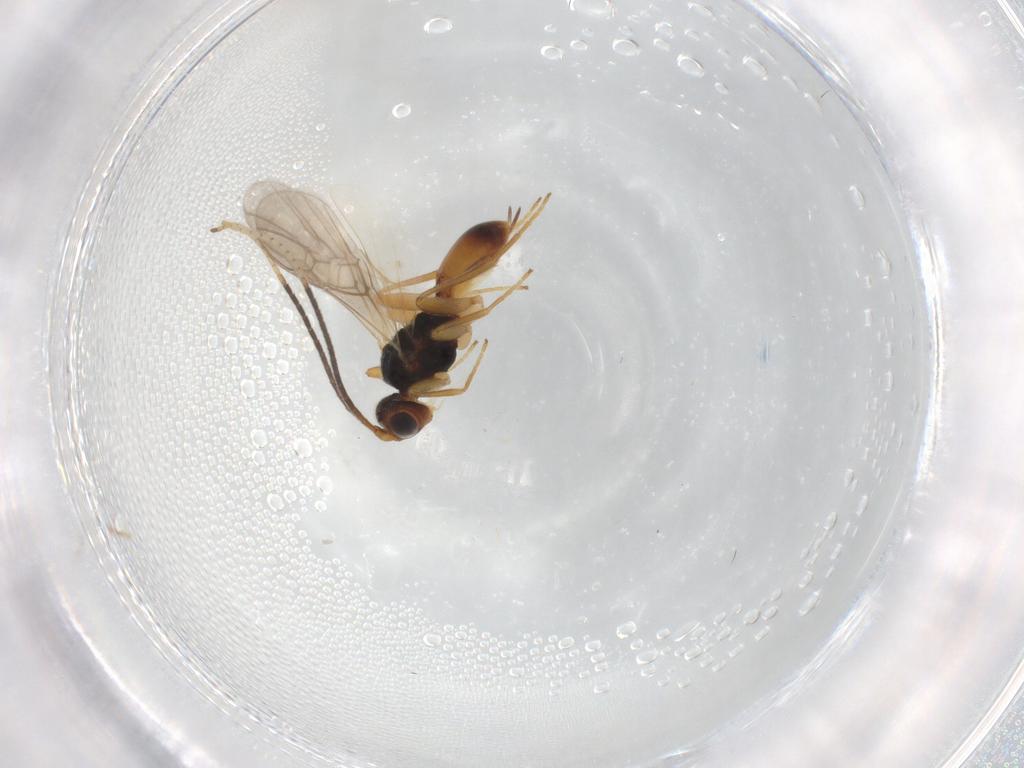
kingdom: Animalia
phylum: Arthropoda
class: Insecta
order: Hymenoptera
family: Braconidae
